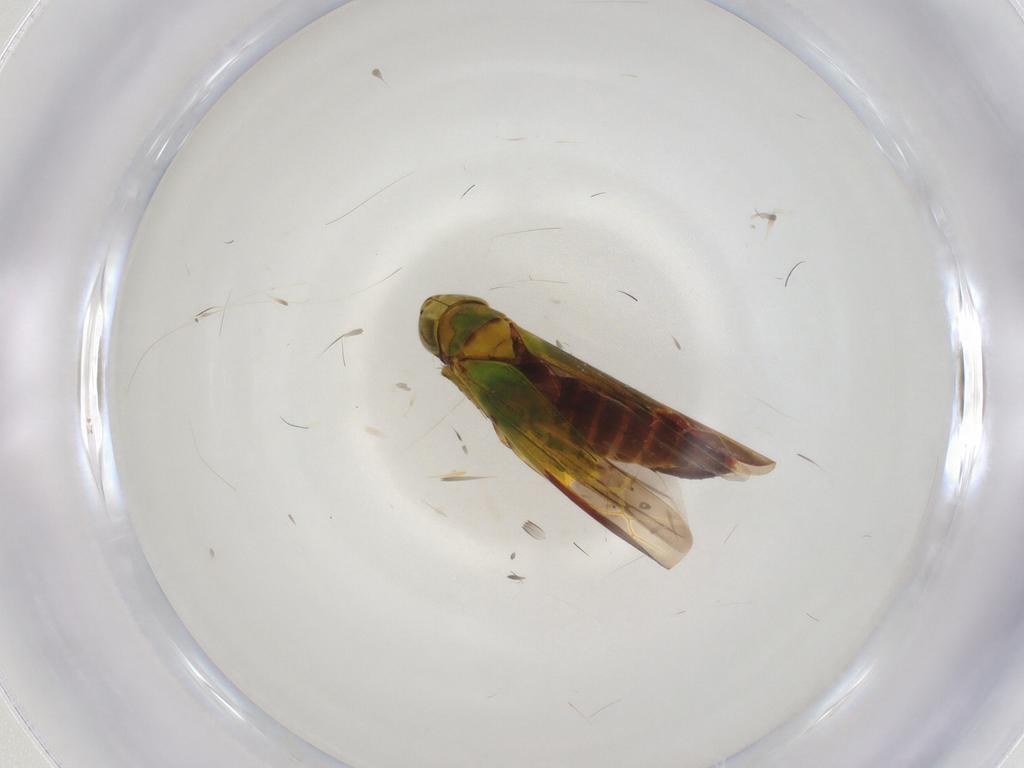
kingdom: Animalia
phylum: Arthropoda
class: Insecta
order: Hemiptera
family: Cicadellidae
